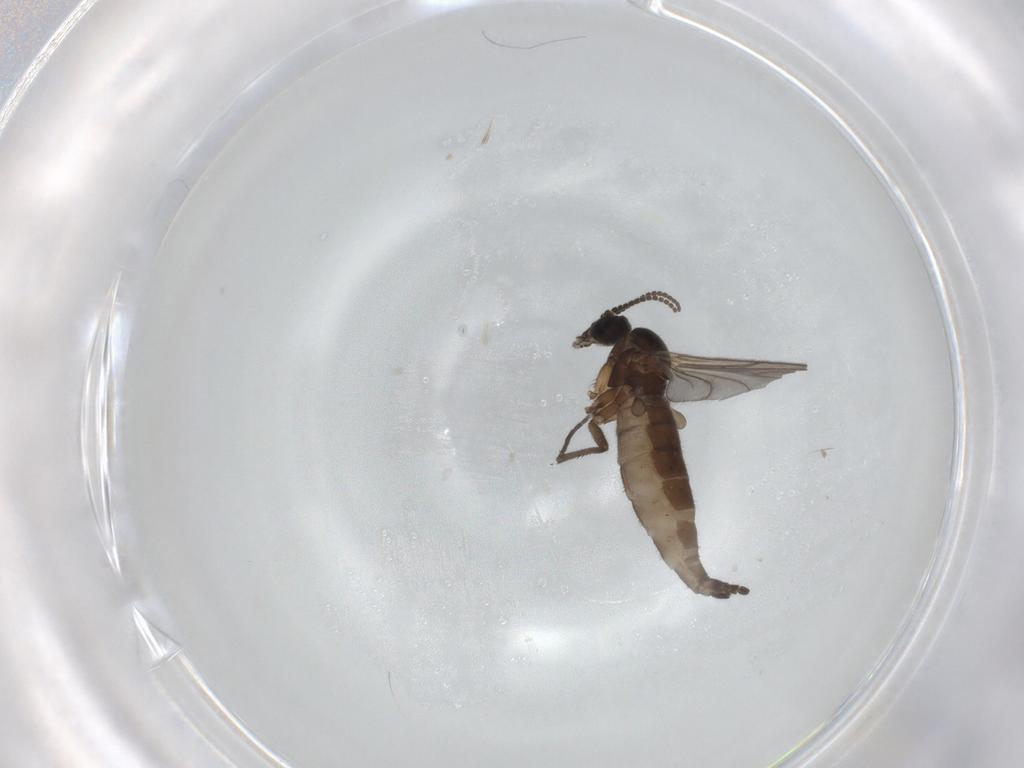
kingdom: Animalia
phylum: Arthropoda
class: Insecta
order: Diptera
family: Sciaridae
